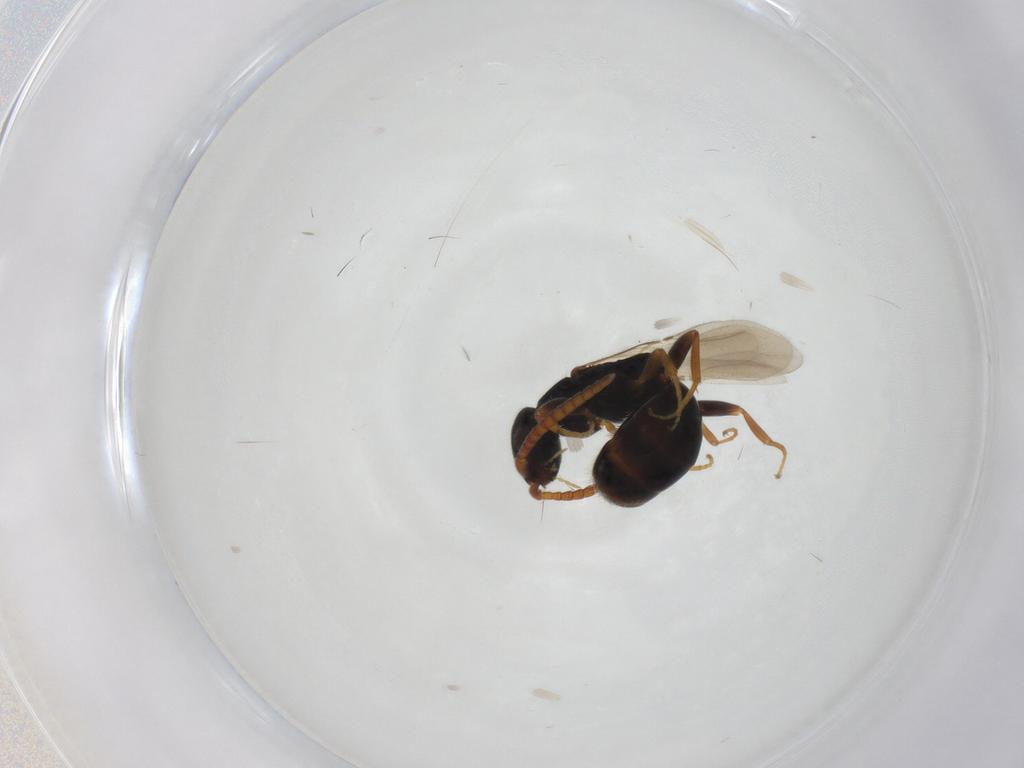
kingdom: Animalia
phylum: Arthropoda
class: Insecta
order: Hymenoptera
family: Bethylidae
